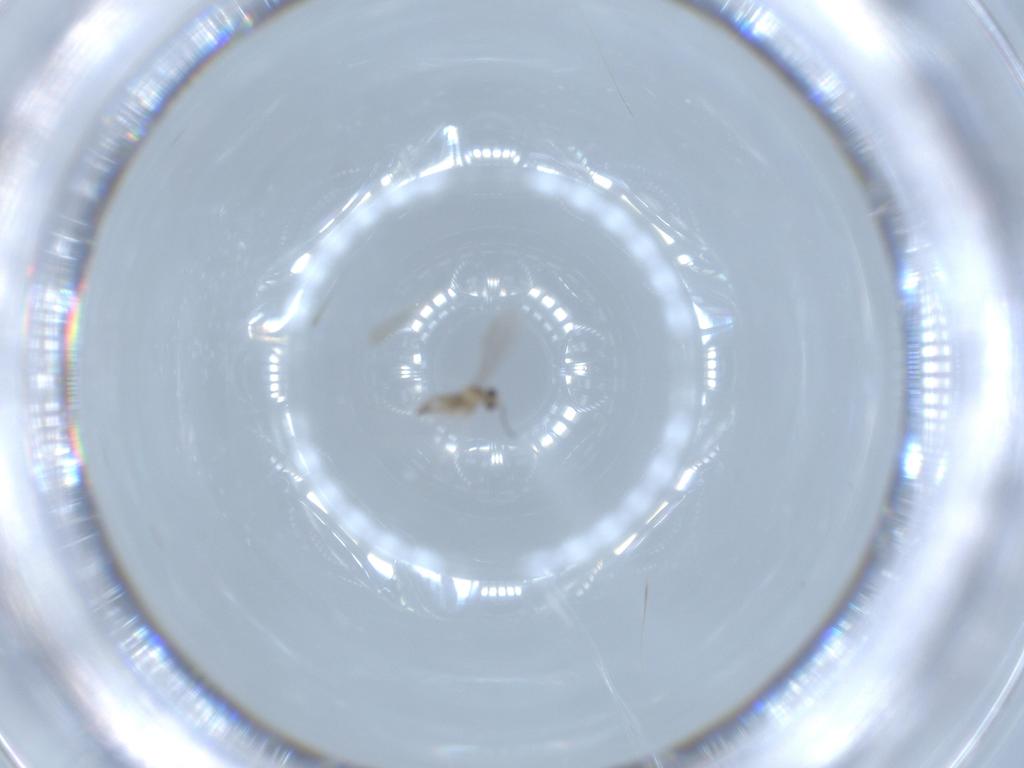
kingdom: Animalia
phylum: Arthropoda
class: Insecta
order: Diptera
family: Cecidomyiidae
